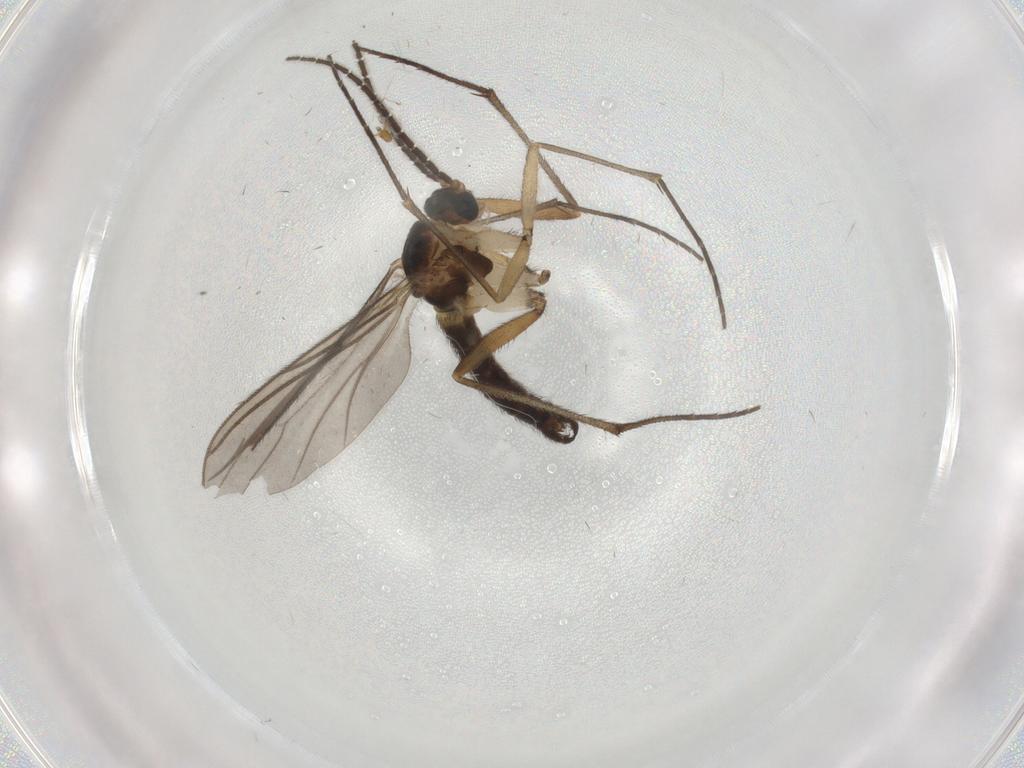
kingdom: Animalia
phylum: Arthropoda
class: Insecta
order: Diptera
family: Sciaridae
